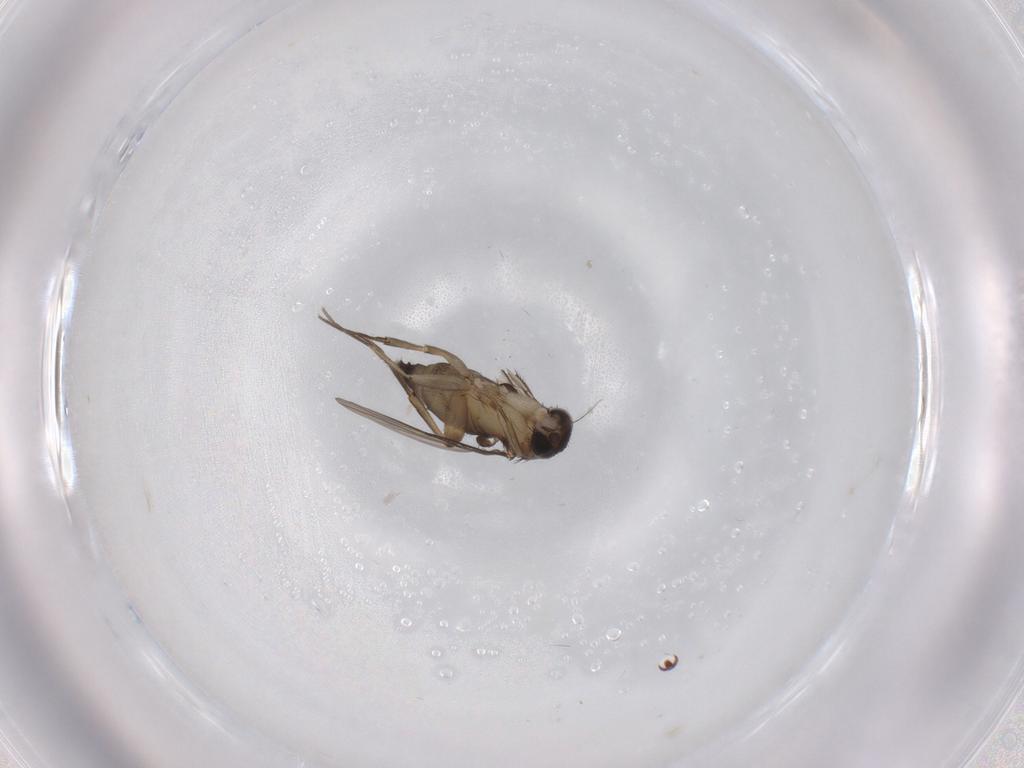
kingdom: Animalia
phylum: Arthropoda
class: Insecta
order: Diptera
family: Phoridae
